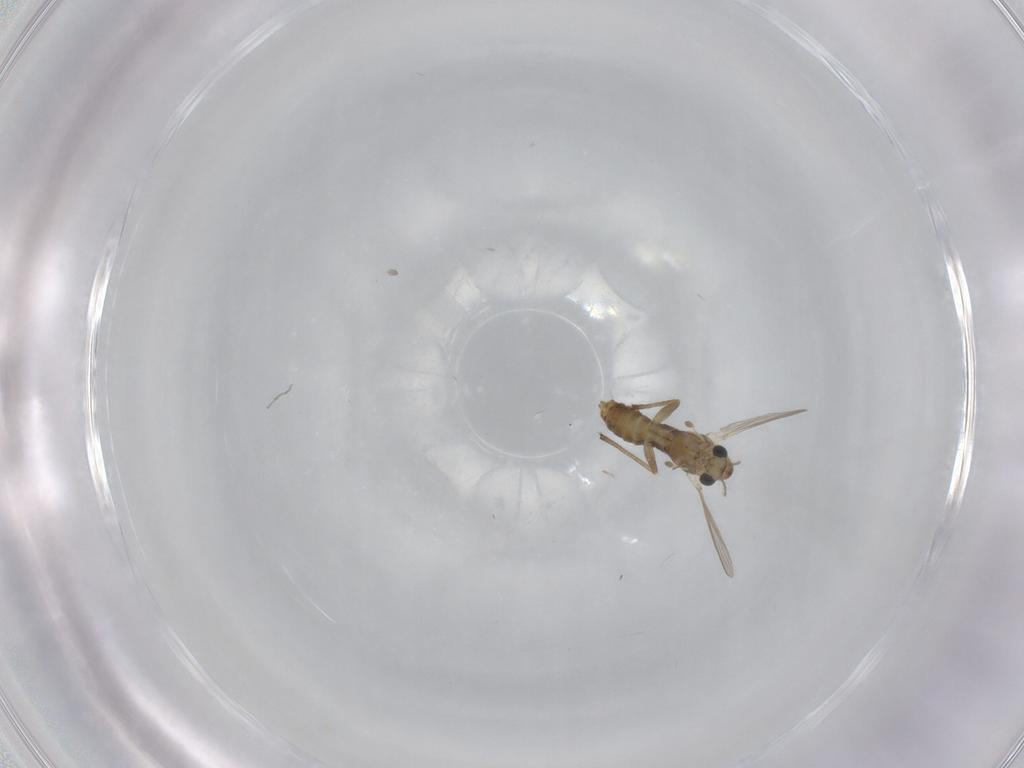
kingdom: Animalia
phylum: Arthropoda
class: Insecta
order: Diptera
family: Chironomidae
